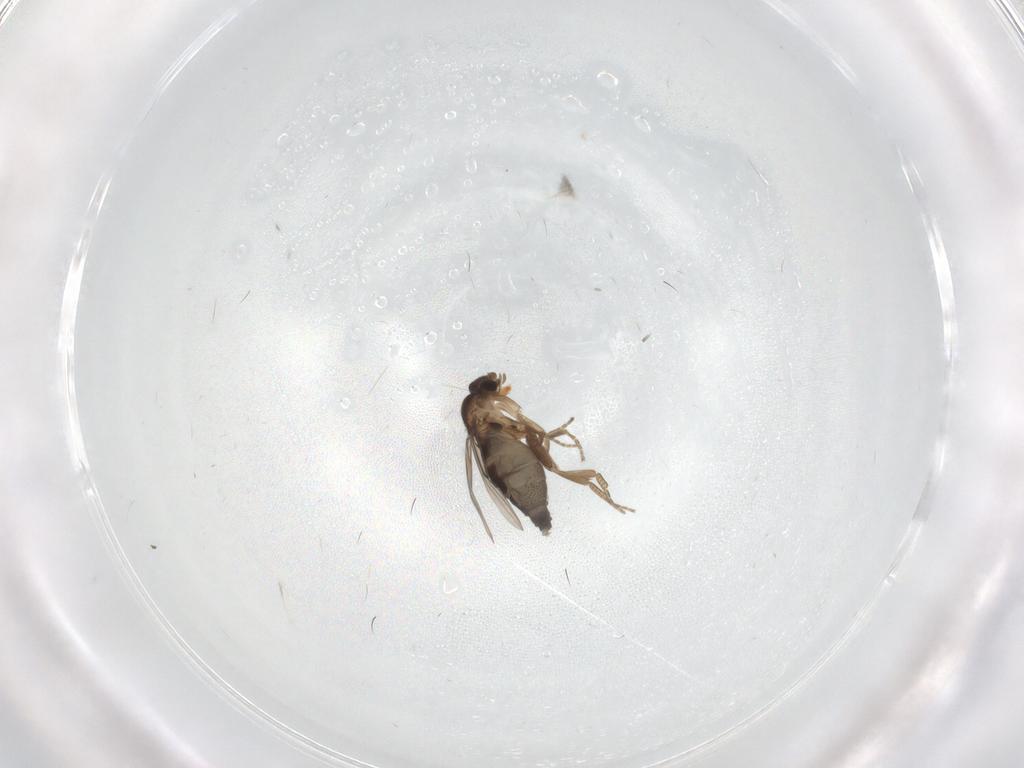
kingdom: Animalia
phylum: Arthropoda
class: Insecta
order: Diptera
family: Phoridae
